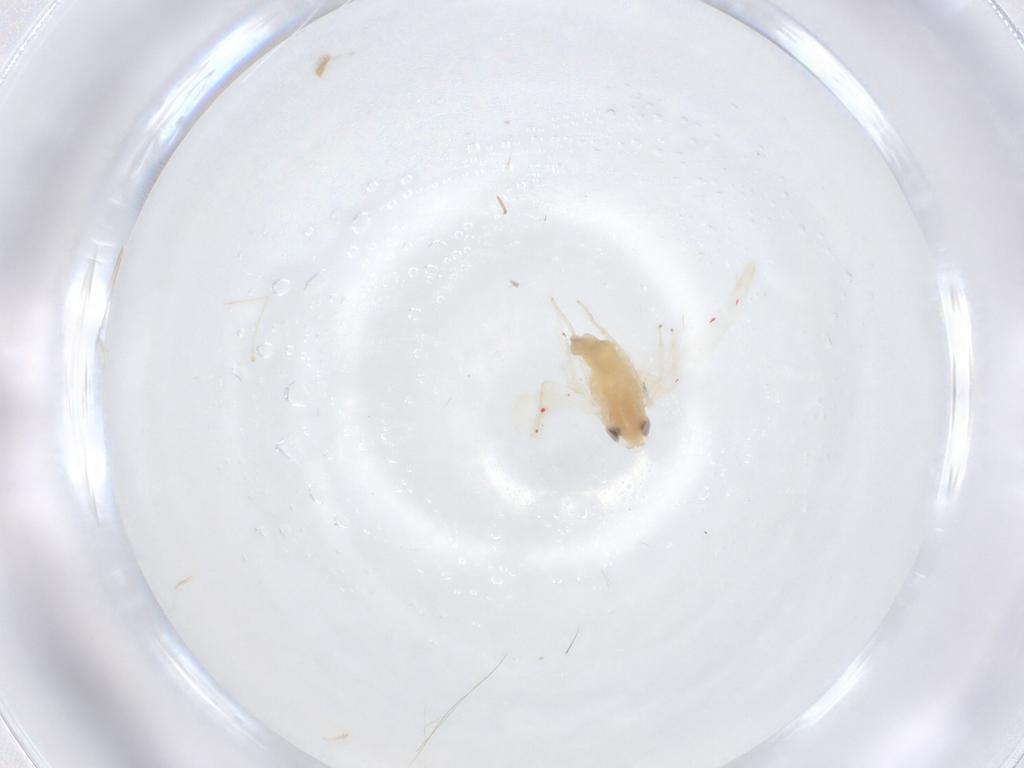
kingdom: Animalia
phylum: Arthropoda
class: Insecta
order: Hemiptera
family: Cicadellidae
